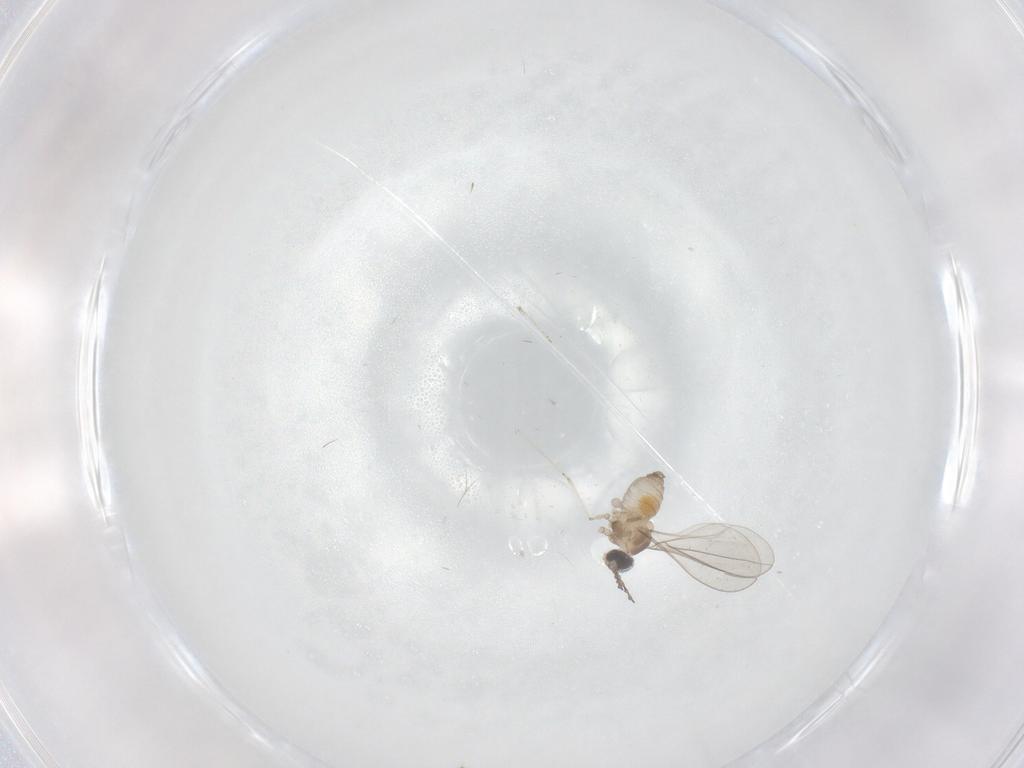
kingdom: Animalia
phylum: Arthropoda
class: Insecta
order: Diptera
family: Cecidomyiidae
